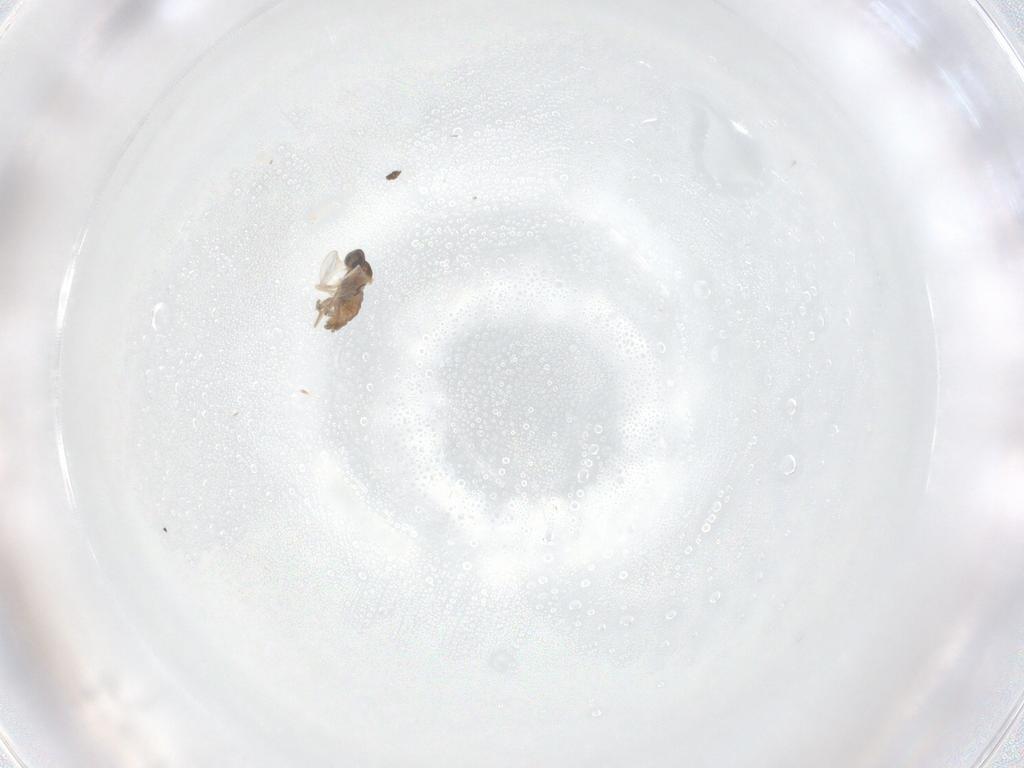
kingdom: Animalia
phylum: Arthropoda
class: Insecta
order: Diptera
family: Cecidomyiidae
